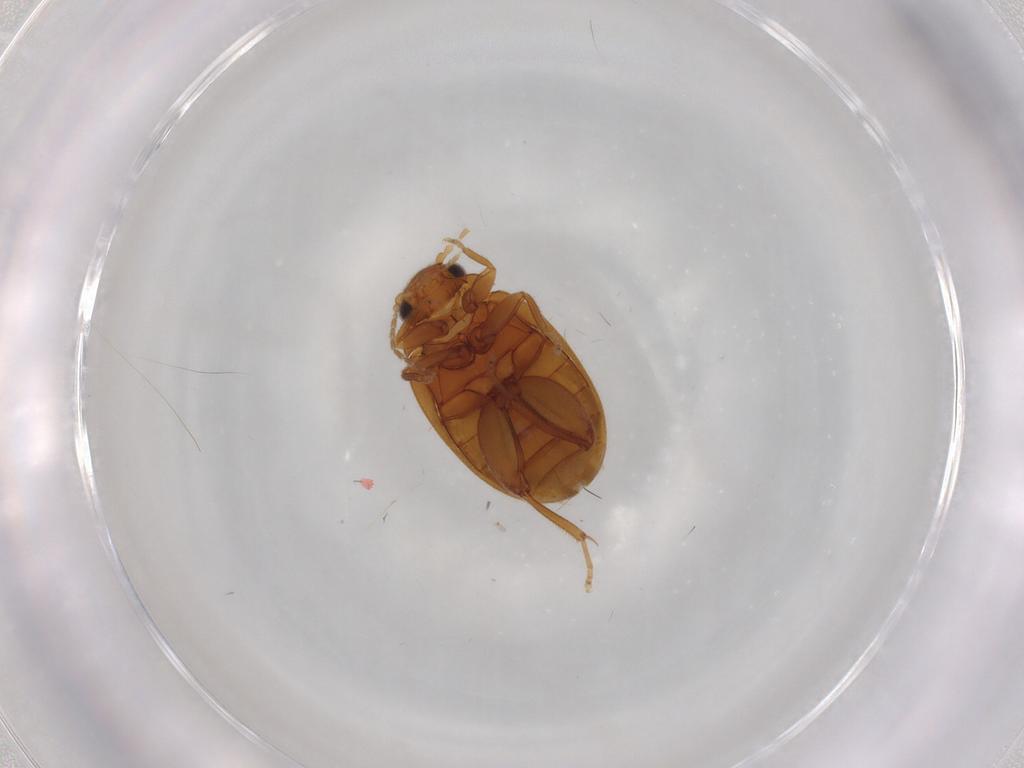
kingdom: Animalia
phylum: Arthropoda
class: Insecta
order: Coleoptera
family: Scirtidae
